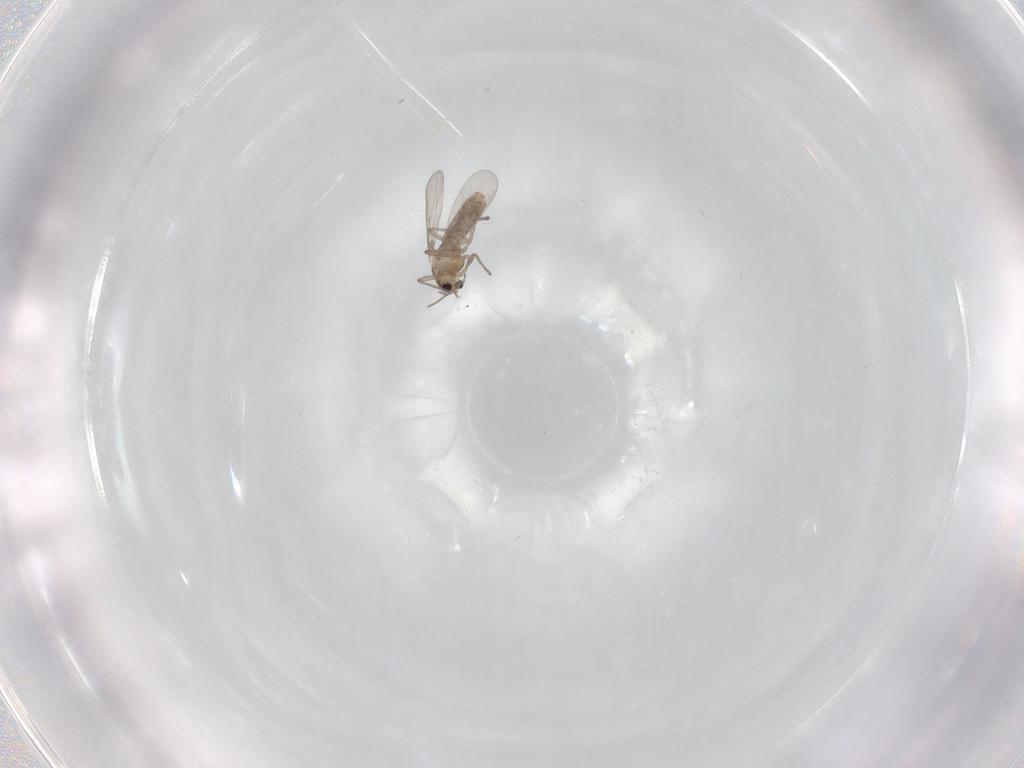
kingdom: Animalia
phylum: Arthropoda
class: Insecta
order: Diptera
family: Chironomidae
